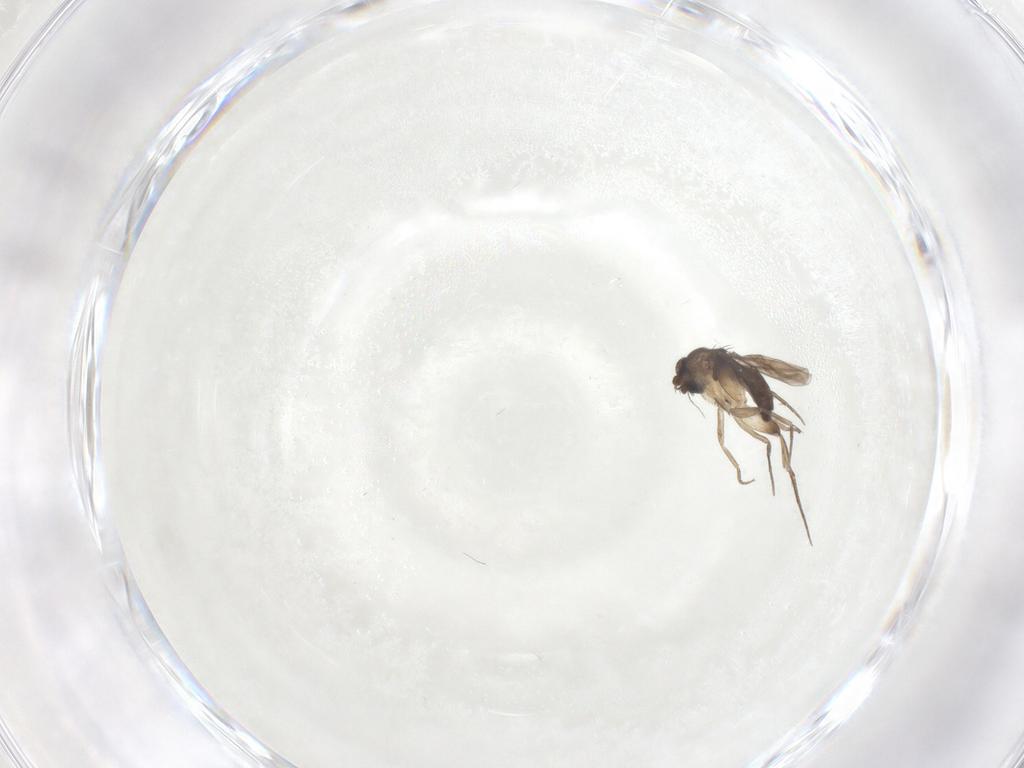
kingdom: Animalia
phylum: Arthropoda
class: Insecta
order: Diptera
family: Phoridae
